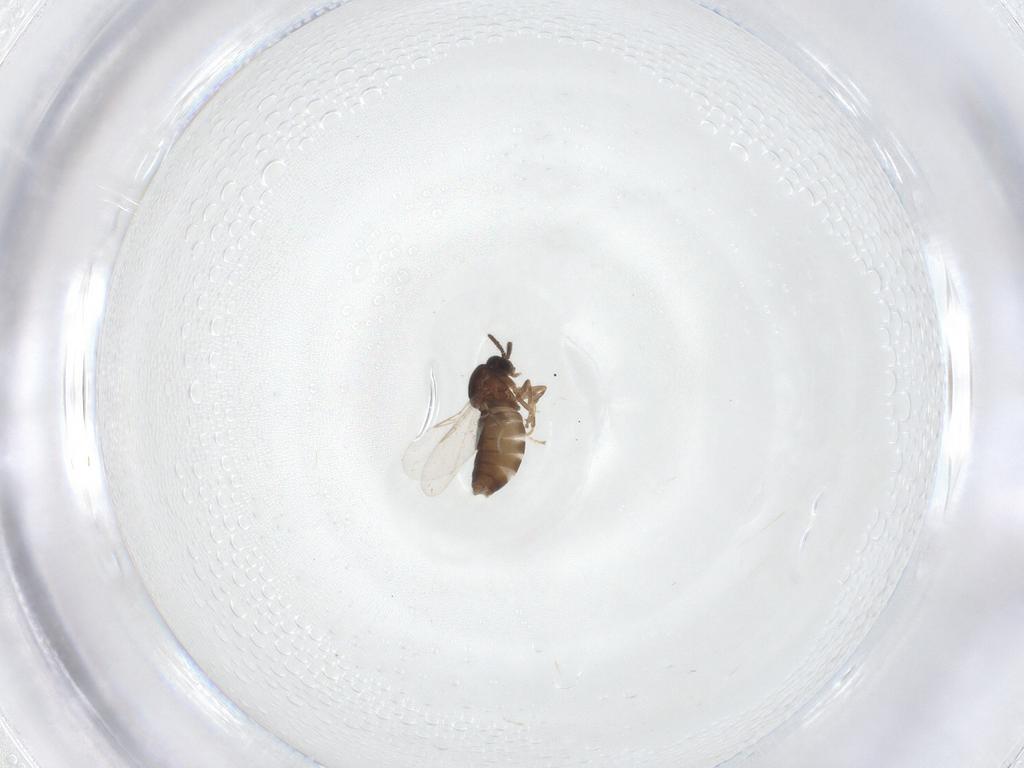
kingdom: Animalia
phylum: Arthropoda
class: Insecta
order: Diptera
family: Scatopsidae
